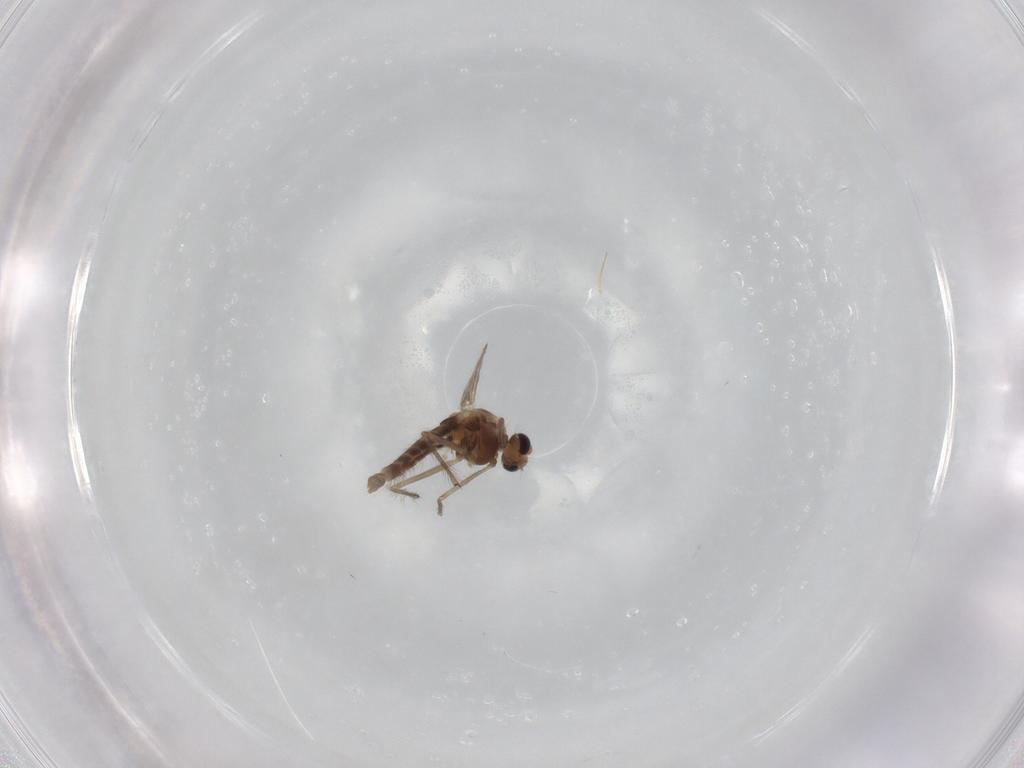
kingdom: Animalia
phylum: Arthropoda
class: Insecta
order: Diptera
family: Chironomidae
